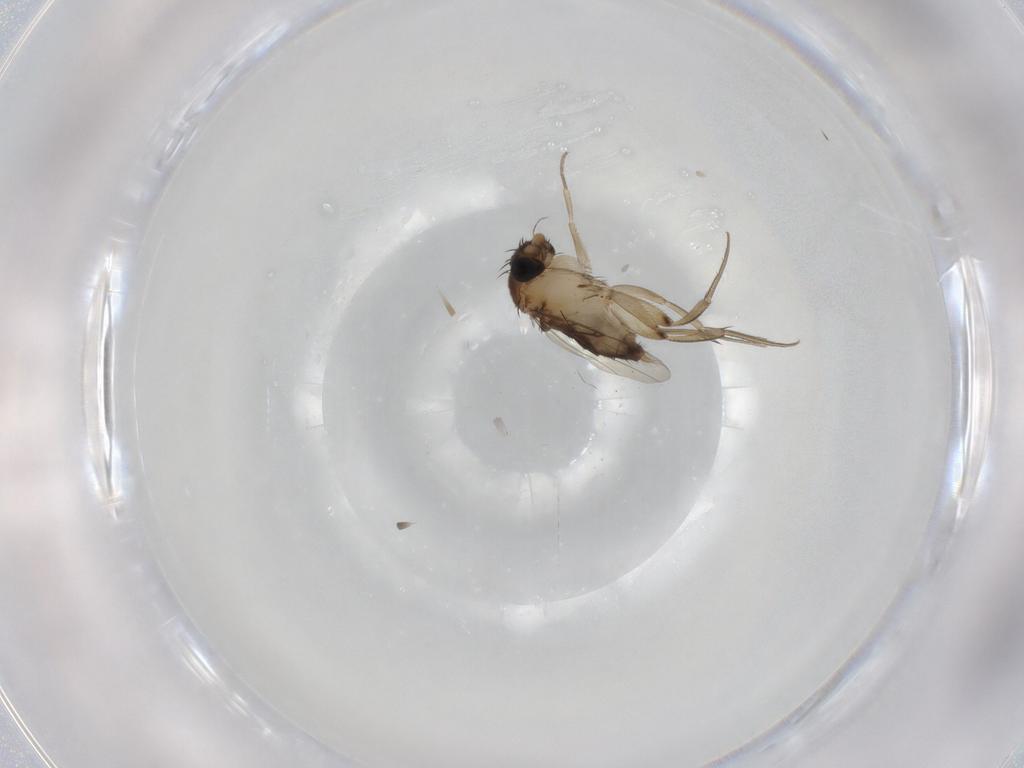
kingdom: Animalia
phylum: Arthropoda
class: Insecta
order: Diptera
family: Phoridae
